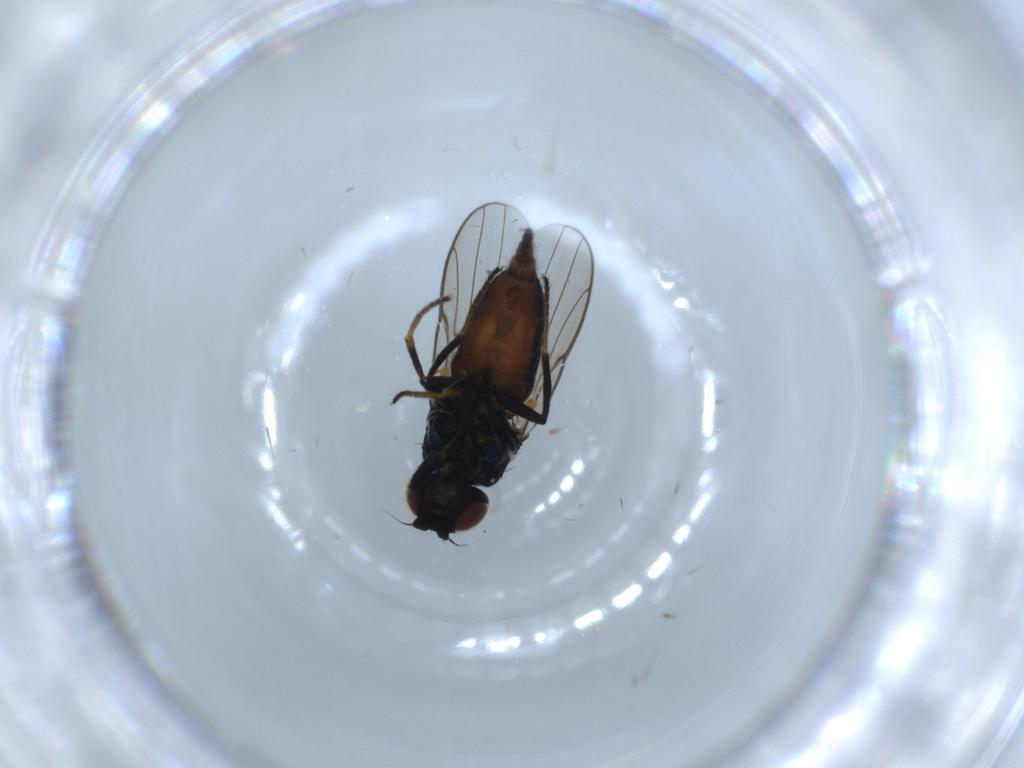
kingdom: Animalia
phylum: Arthropoda
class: Insecta
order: Diptera
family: Chloropidae
